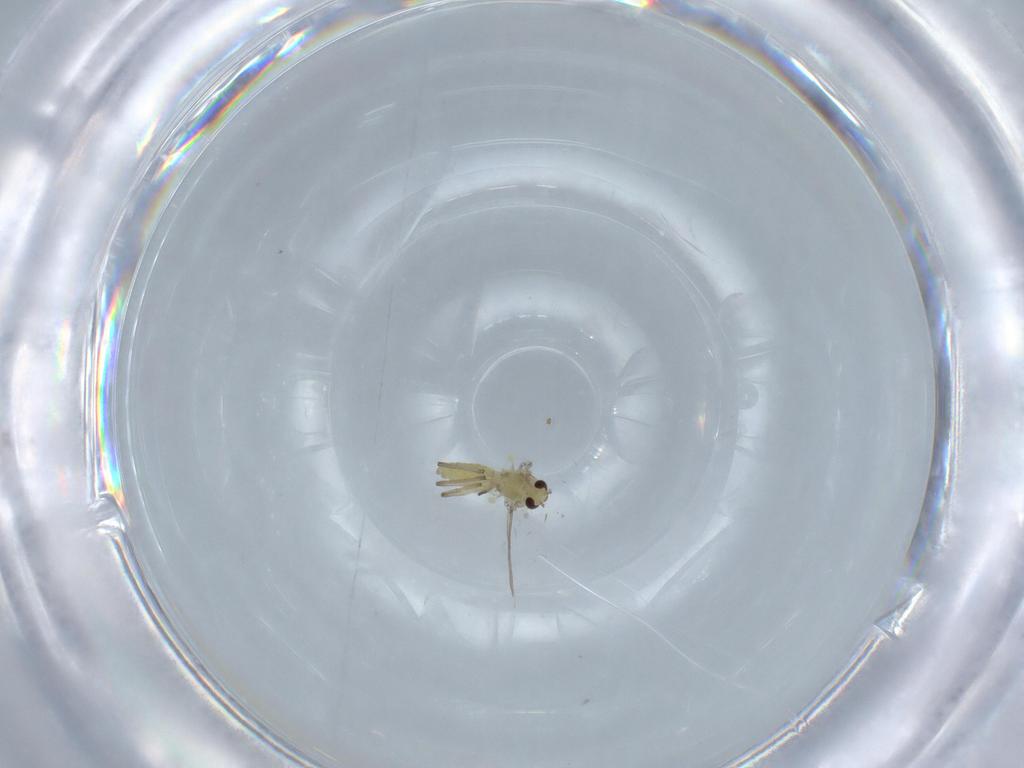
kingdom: Animalia
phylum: Arthropoda
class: Insecta
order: Diptera
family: Chironomidae
